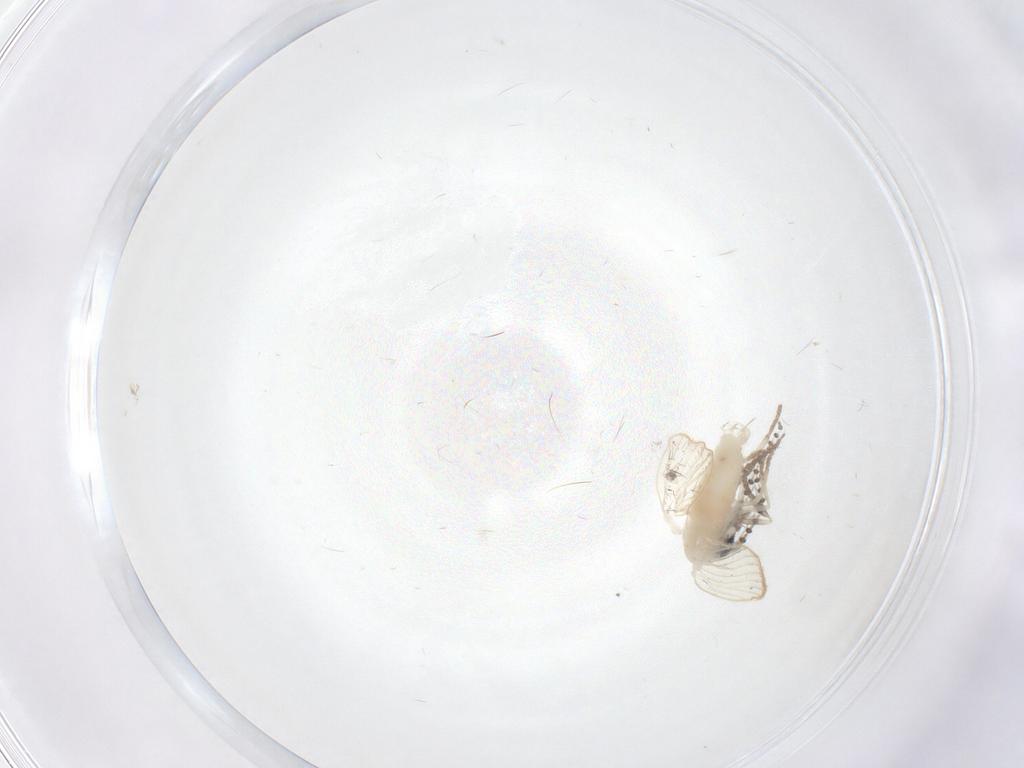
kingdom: Animalia
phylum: Arthropoda
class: Insecta
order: Diptera
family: Psychodidae
